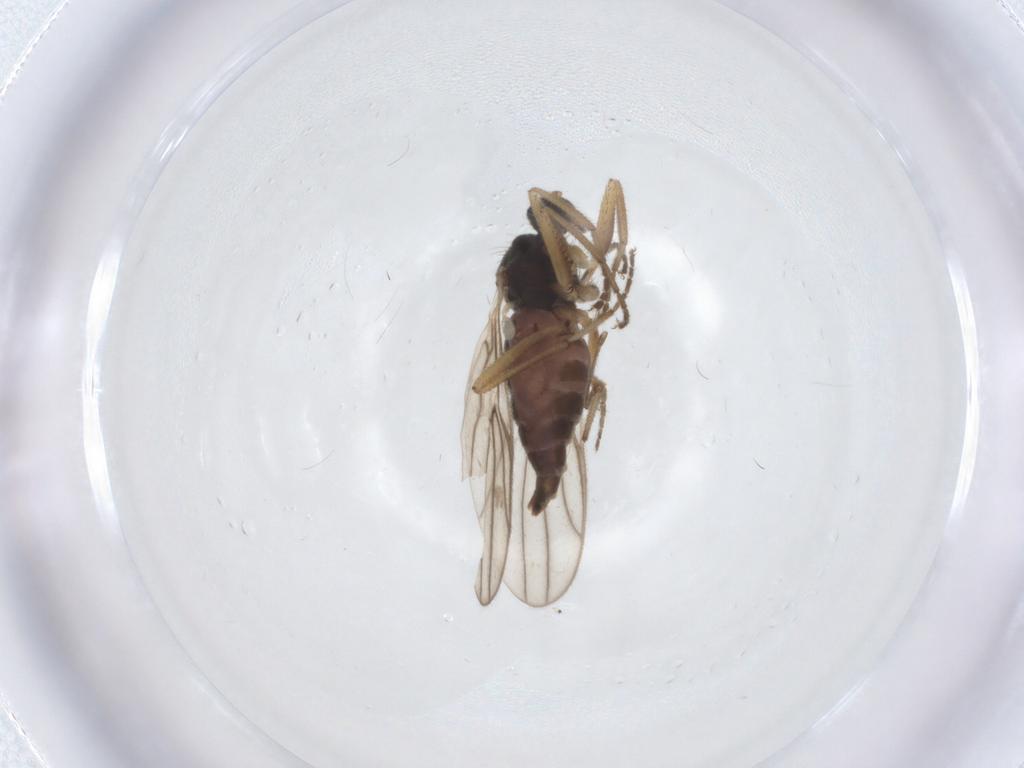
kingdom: Animalia
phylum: Arthropoda
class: Insecta
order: Diptera
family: Hybotidae
